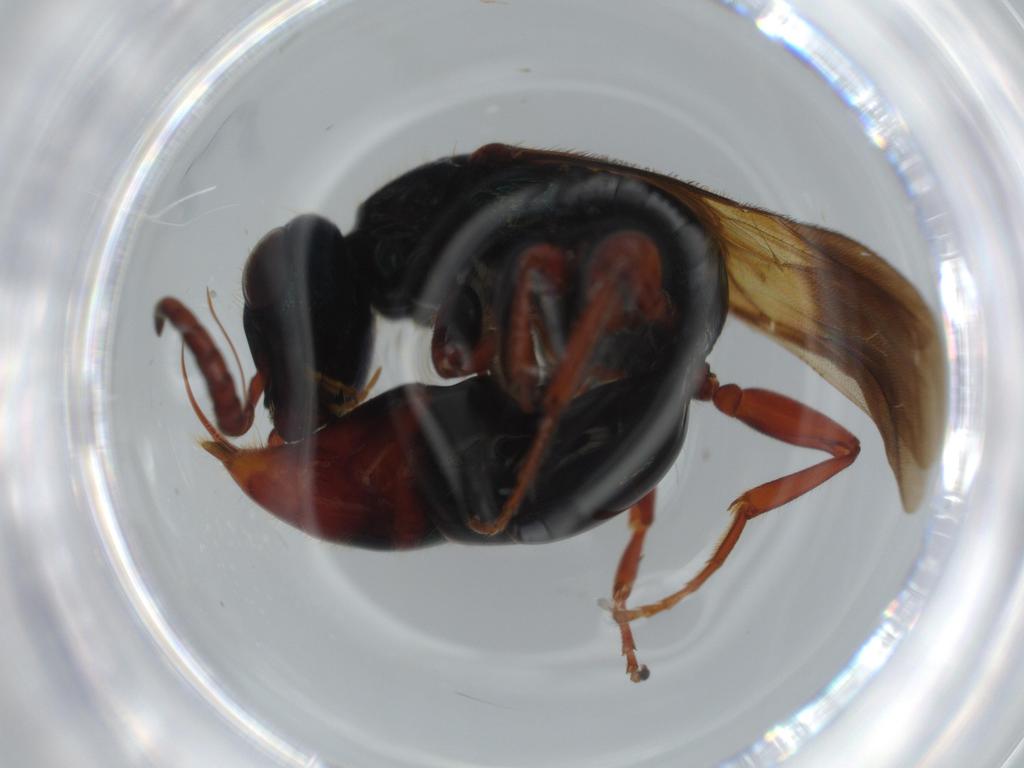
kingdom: Animalia
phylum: Arthropoda
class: Insecta
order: Hymenoptera
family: Bethylidae
